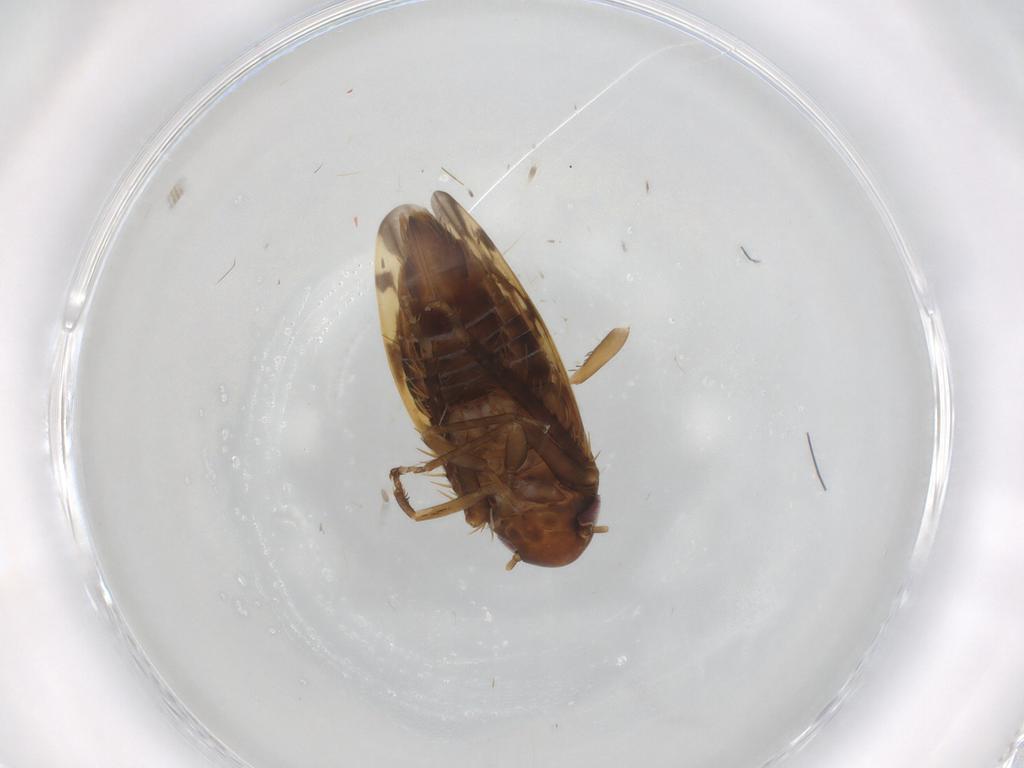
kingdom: Animalia
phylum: Arthropoda
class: Insecta
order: Hemiptera
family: Cicadellidae
